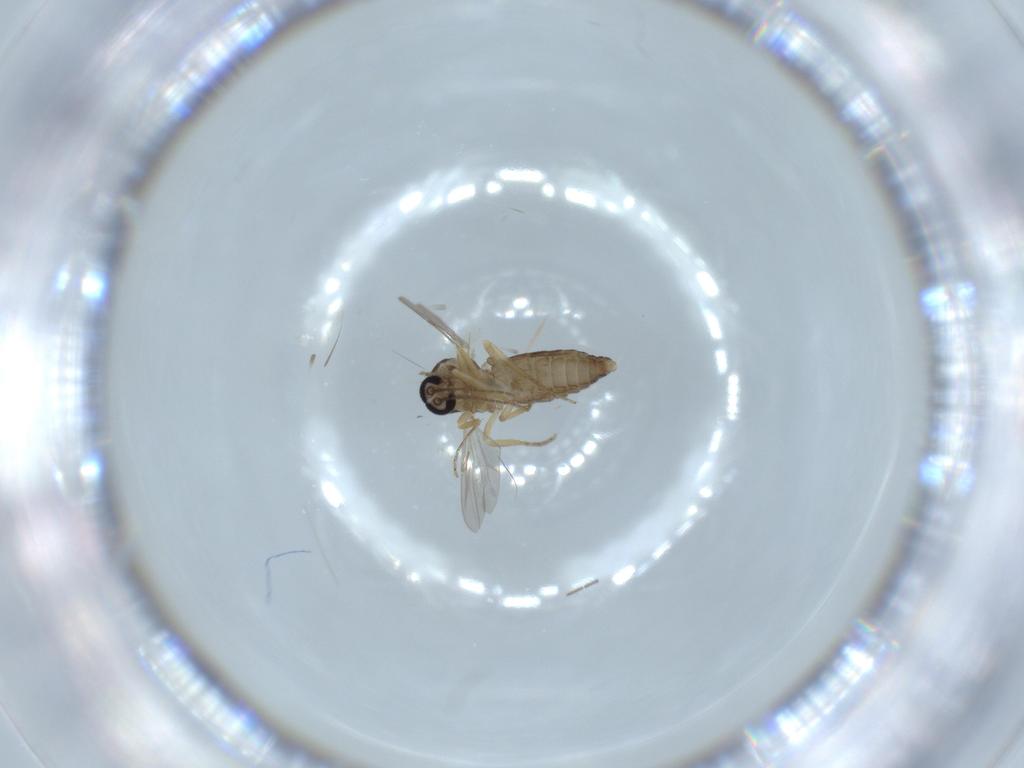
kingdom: Animalia
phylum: Arthropoda
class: Insecta
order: Diptera
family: Ceratopogonidae
